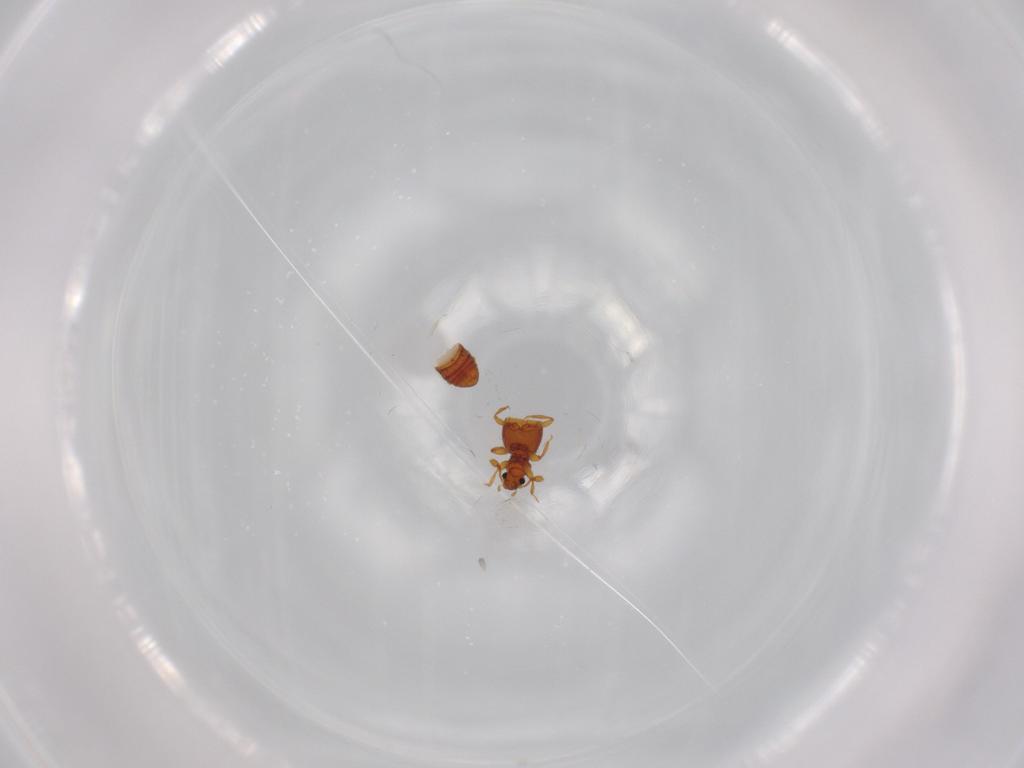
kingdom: Animalia
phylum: Arthropoda
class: Insecta
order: Coleoptera
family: Staphylinidae
